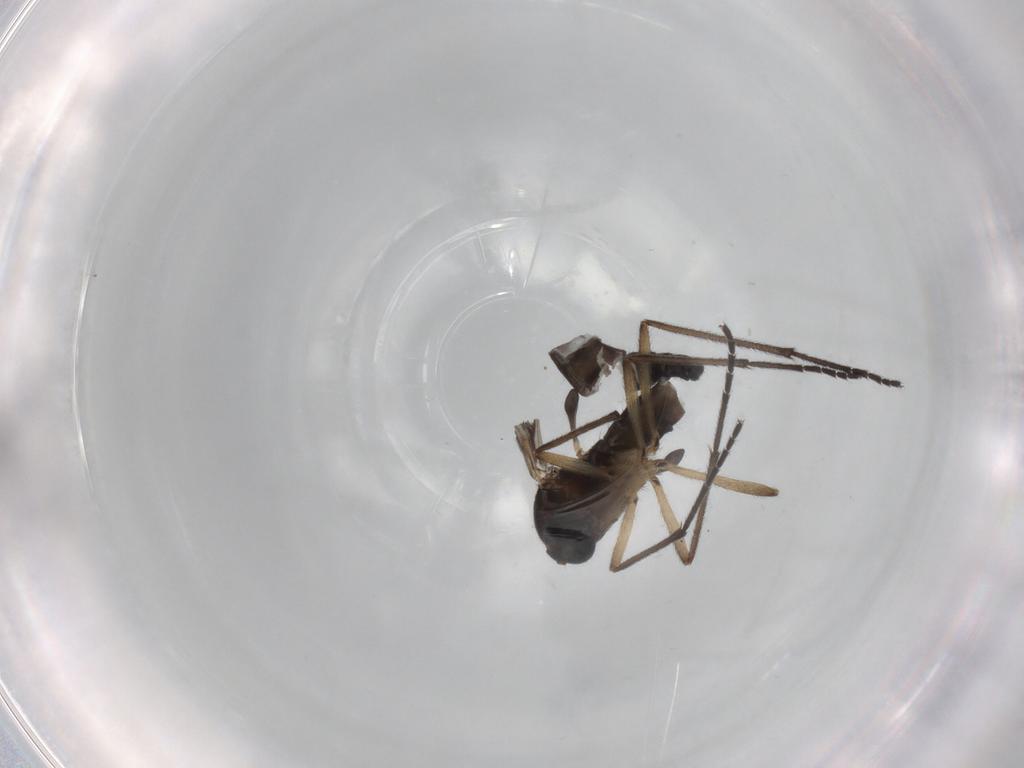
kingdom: Animalia
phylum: Arthropoda
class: Insecta
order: Diptera
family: Sciaridae
